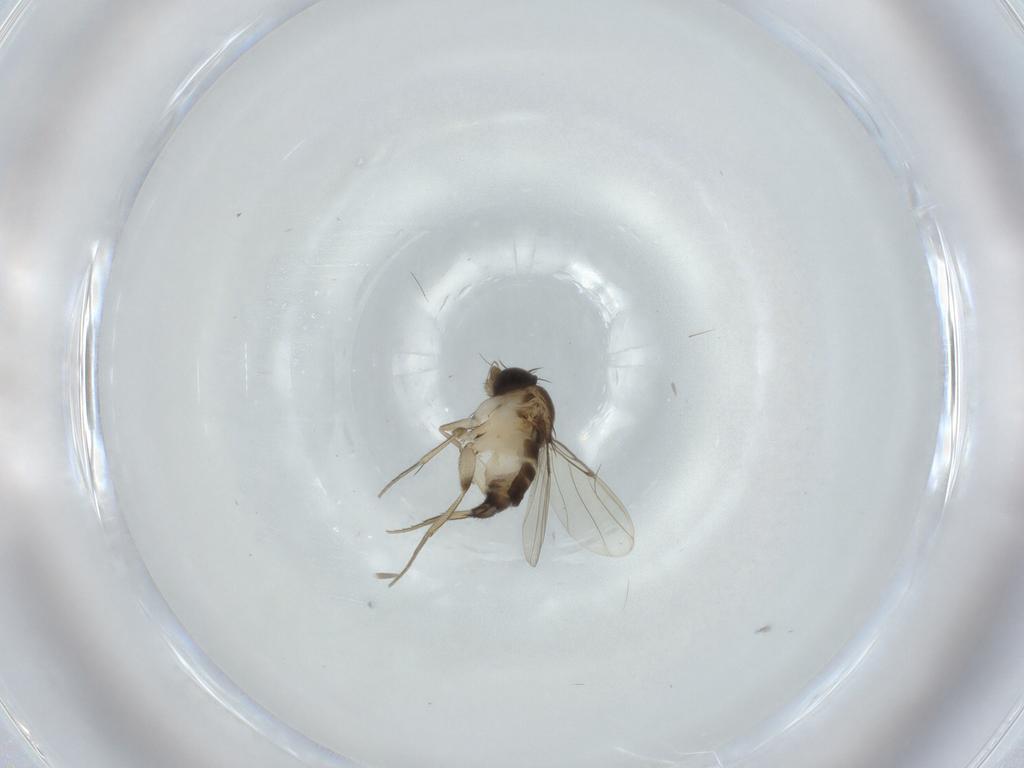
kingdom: Animalia
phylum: Arthropoda
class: Insecta
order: Diptera
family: Phoridae
